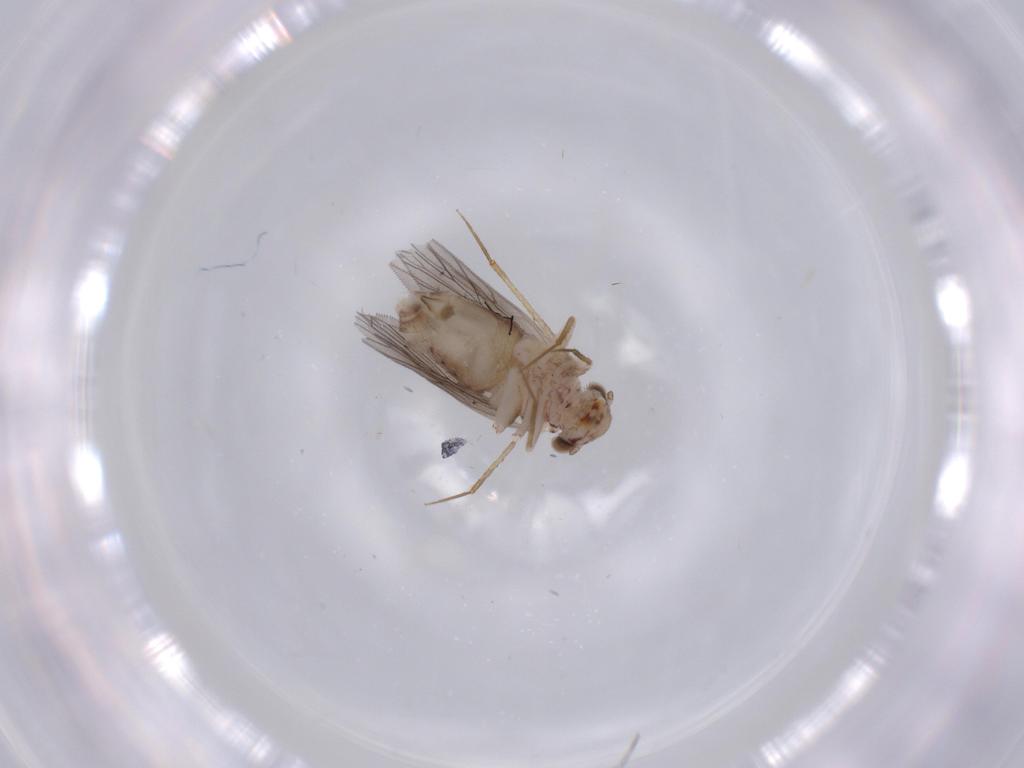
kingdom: Animalia
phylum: Arthropoda
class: Insecta
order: Psocodea
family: Lepidopsocidae
